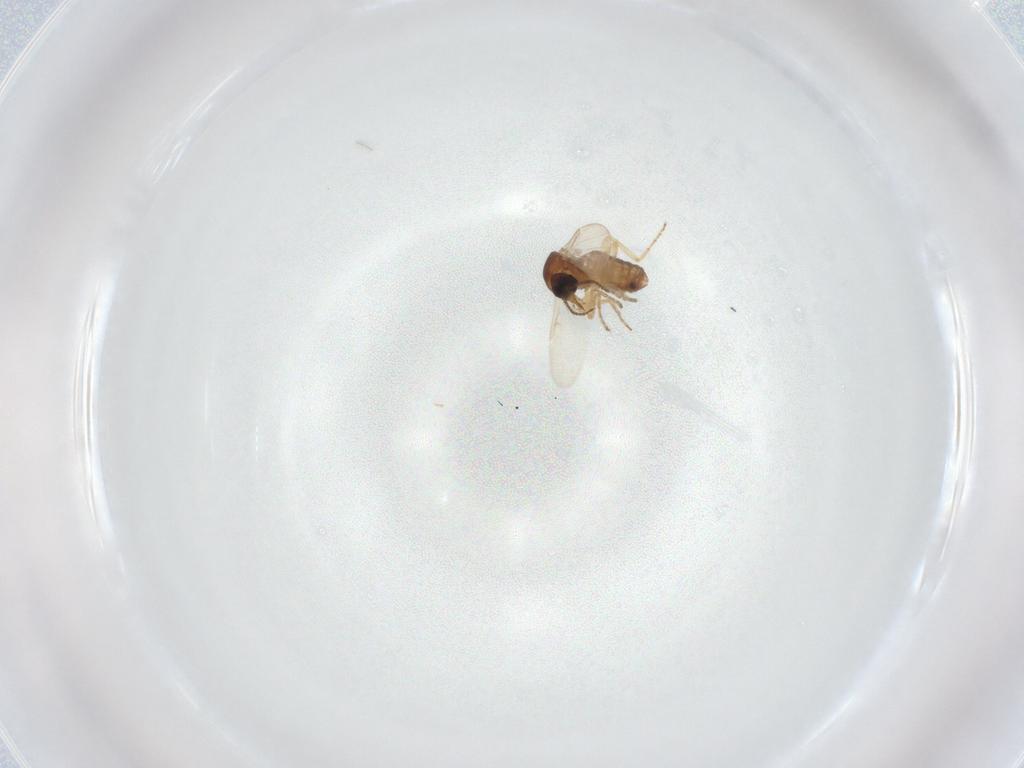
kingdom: Animalia
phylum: Arthropoda
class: Insecta
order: Diptera
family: Ceratopogonidae
